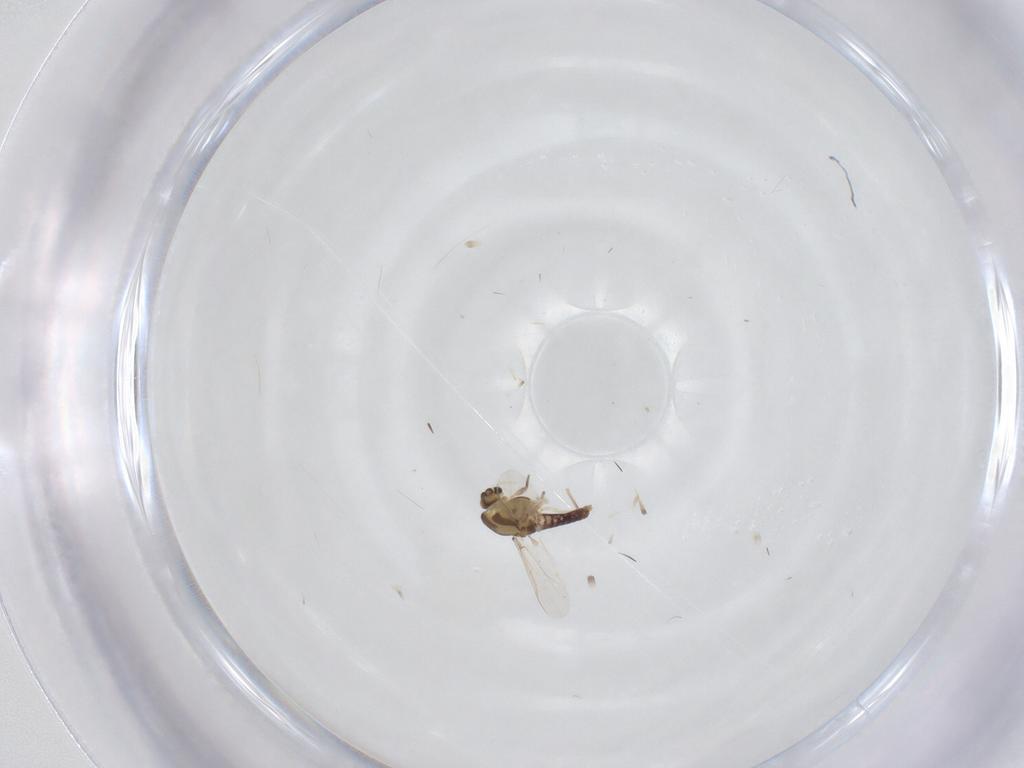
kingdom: Animalia
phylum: Arthropoda
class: Insecta
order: Diptera
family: Chironomidae
